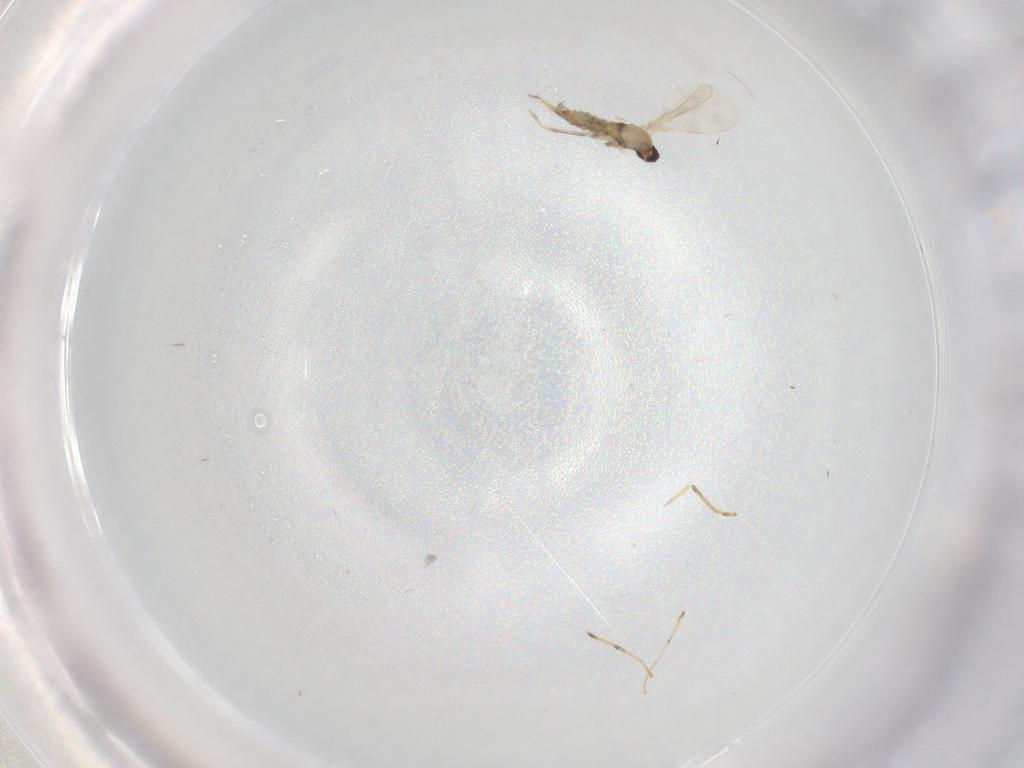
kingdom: Animalia
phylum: Arthropoda
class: Insecta
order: Diptera
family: Cecidomyiidae
